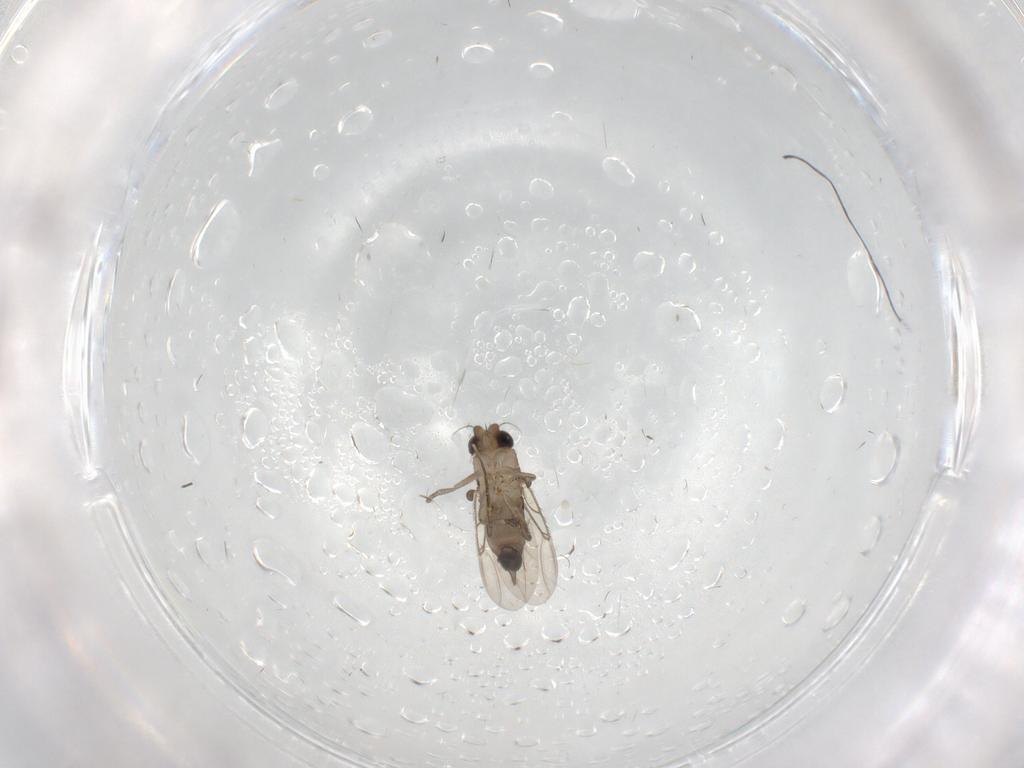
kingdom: Animalia
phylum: Arthropoda
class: Insecta
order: Diptera
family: Phoridae
